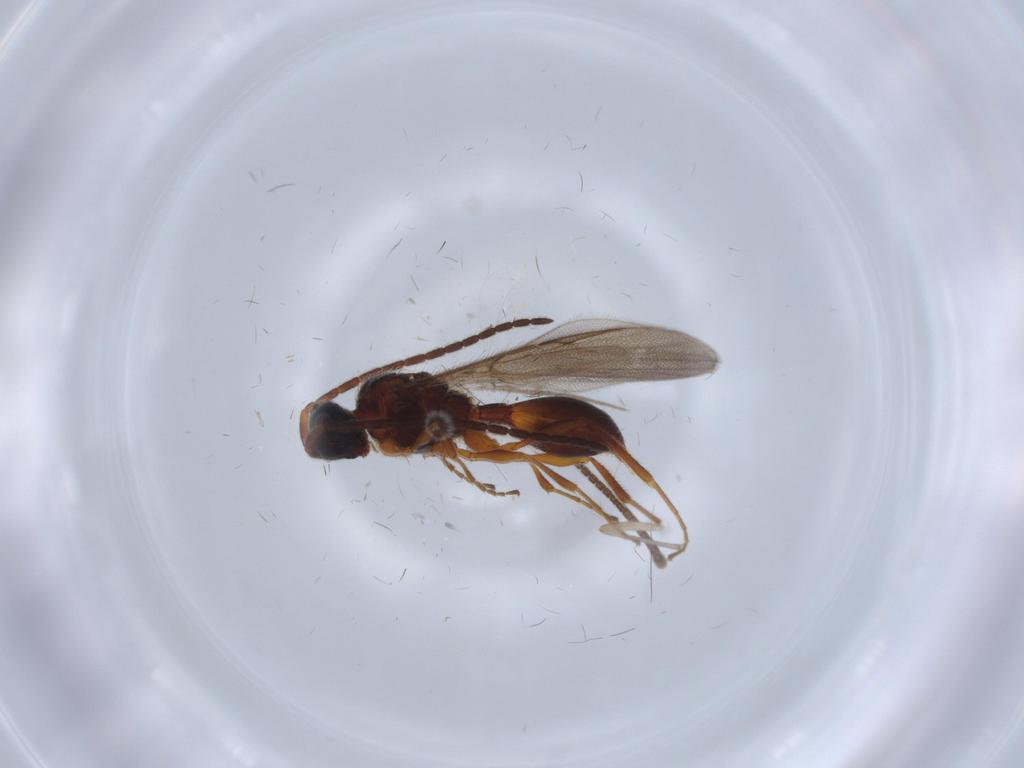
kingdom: Animalia
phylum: Arthropoda
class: Insecta
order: Hymenoptera
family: Ichneumonidae
